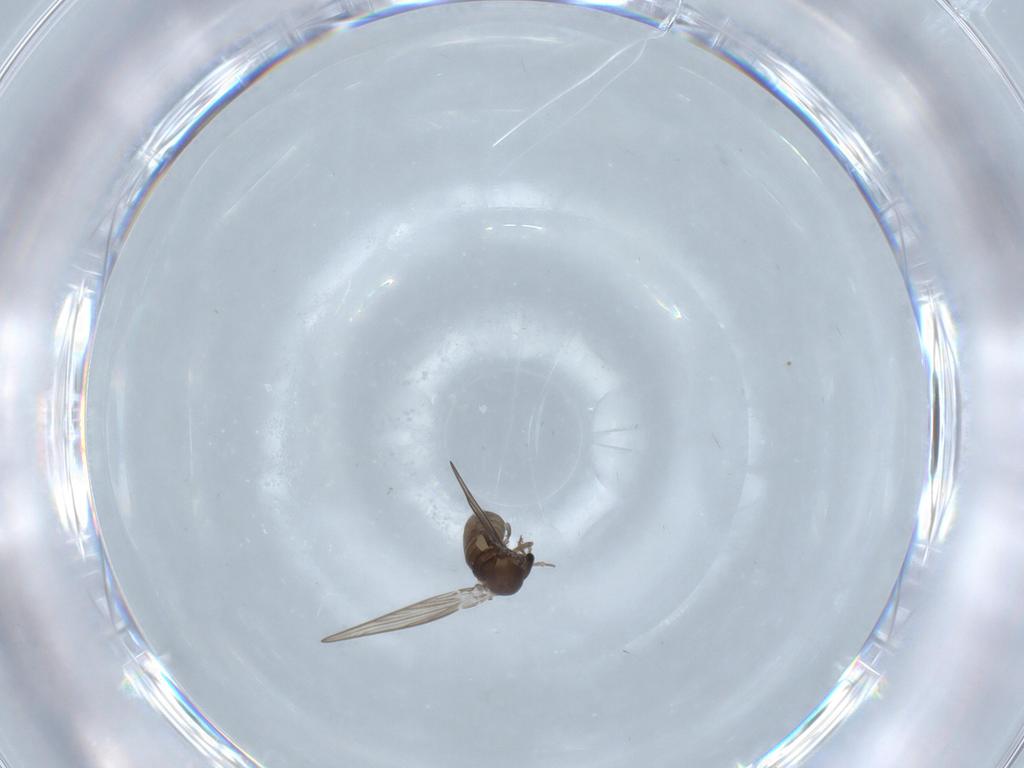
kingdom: Animalia
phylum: Arthropoda
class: Insecta
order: Diptera
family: Psychodidae
